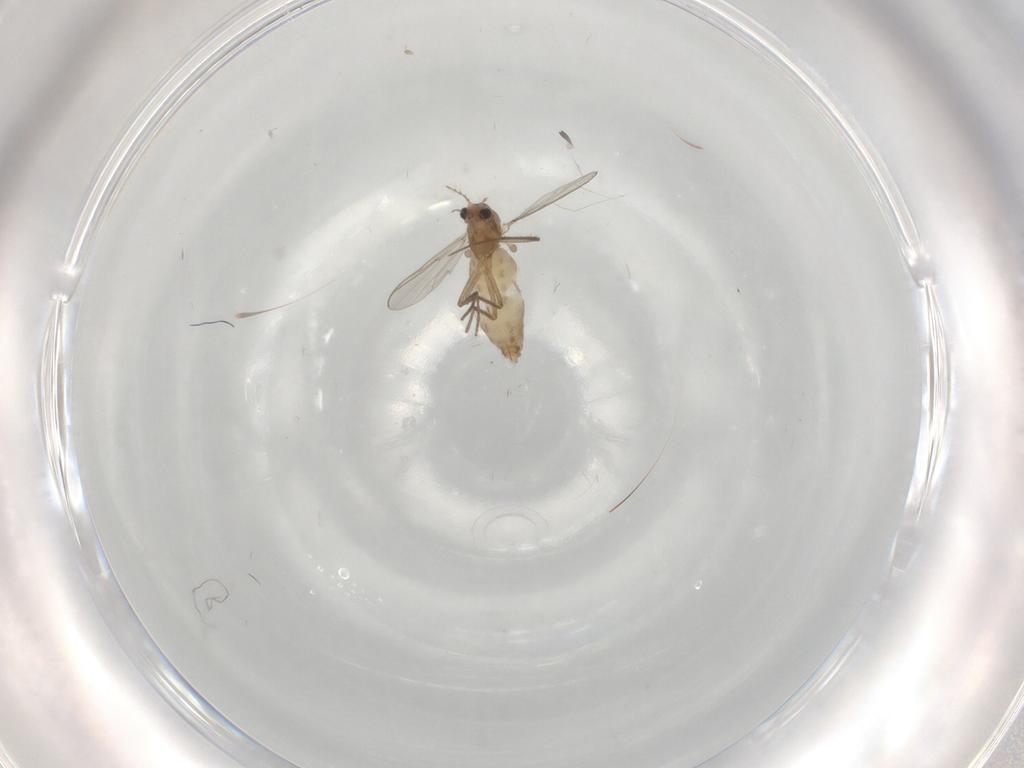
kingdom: Animalia
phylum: Arthropoda
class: Insecta
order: Diptera
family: Chironomidae
